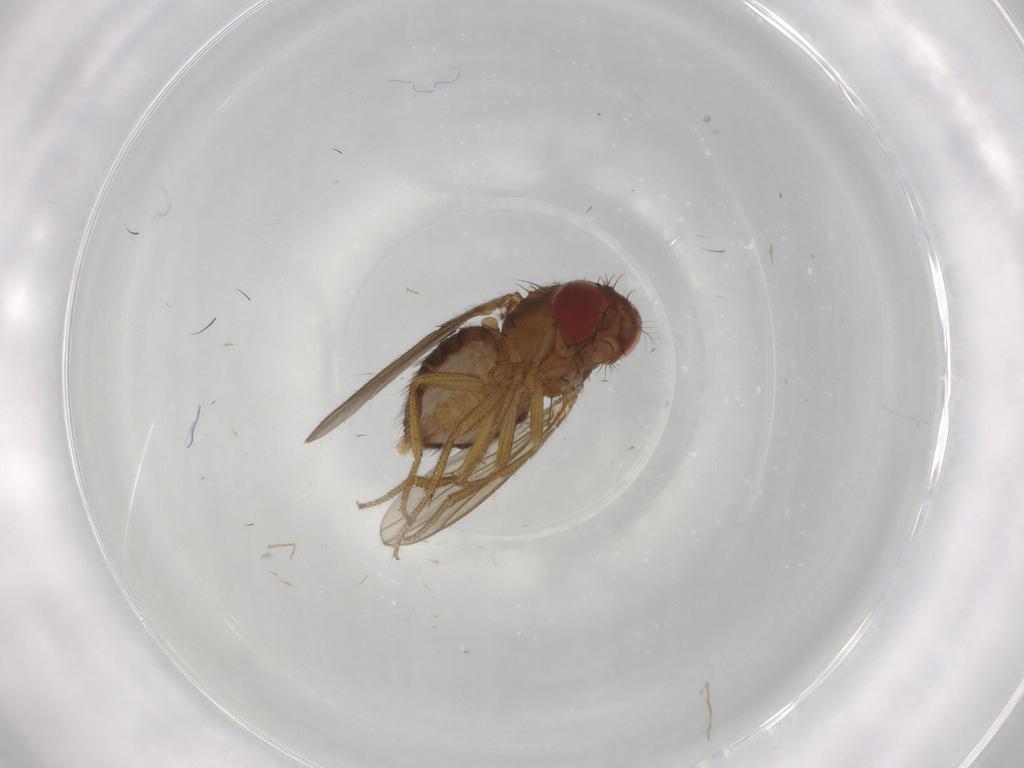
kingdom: Animalia
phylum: Arthropoda
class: Insecta
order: Diptera
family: Drosophilidae
